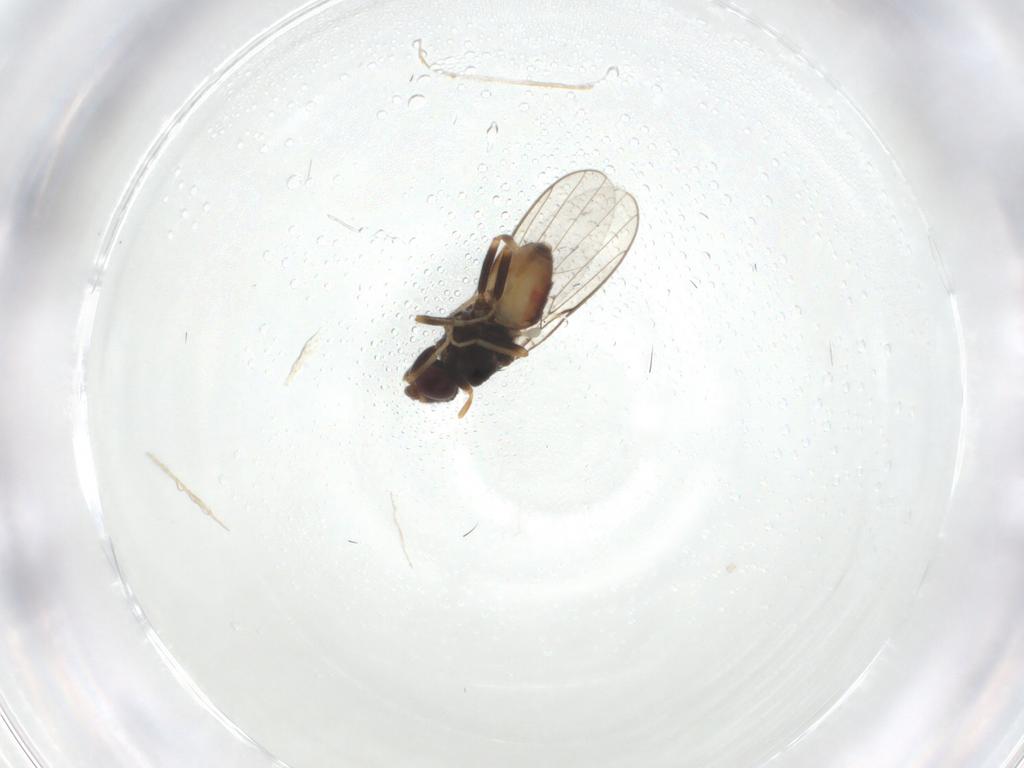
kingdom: Animalia
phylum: Arthropoda
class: Insecta
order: Diptera
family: Chloropidae
